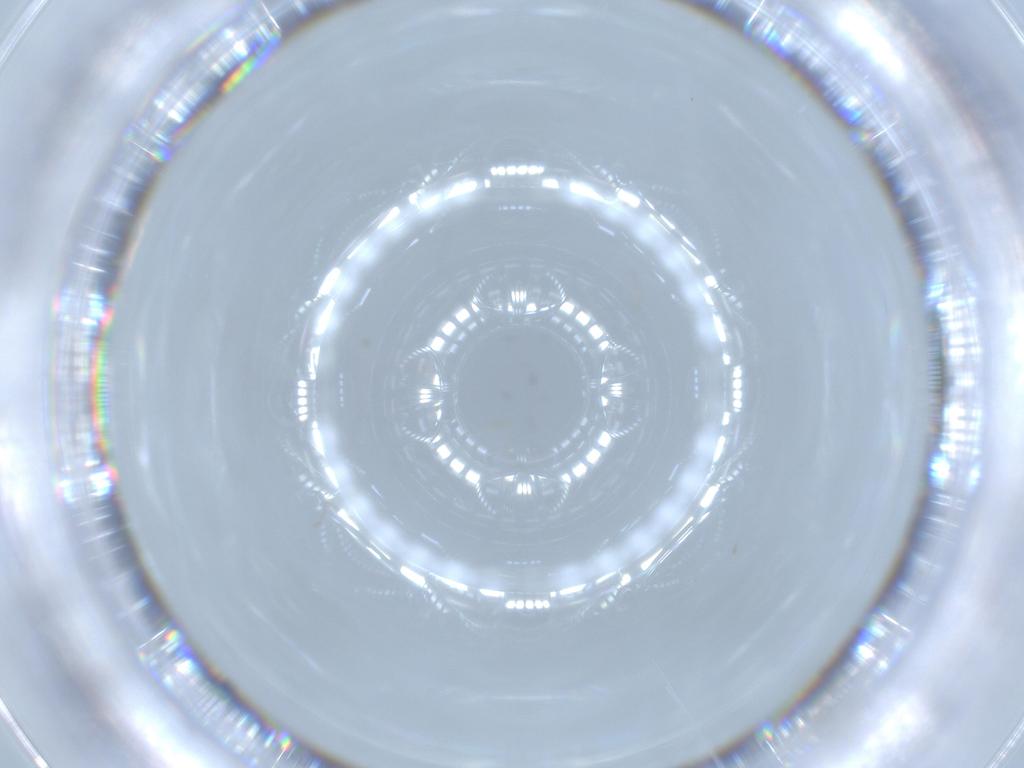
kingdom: Animalia
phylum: Arthropoda
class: Insecta
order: Diptera
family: Cecidomyiidae
